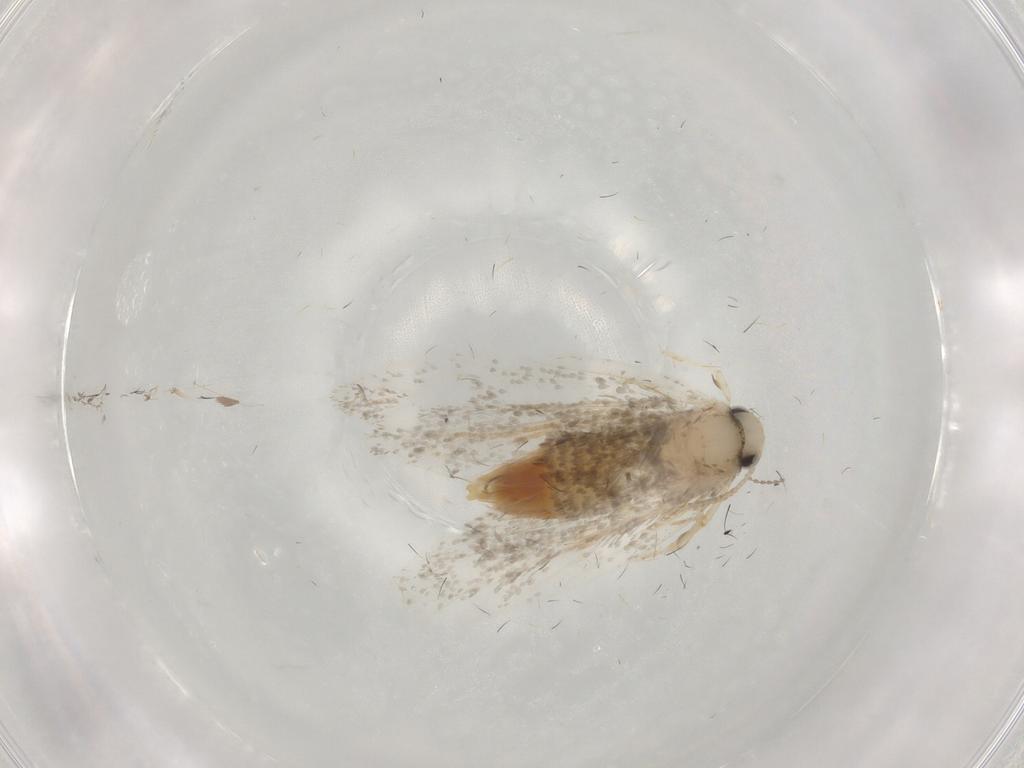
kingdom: Animalia
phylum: Arthropoda
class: Insecta
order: Lepidoptera
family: Psychidae
